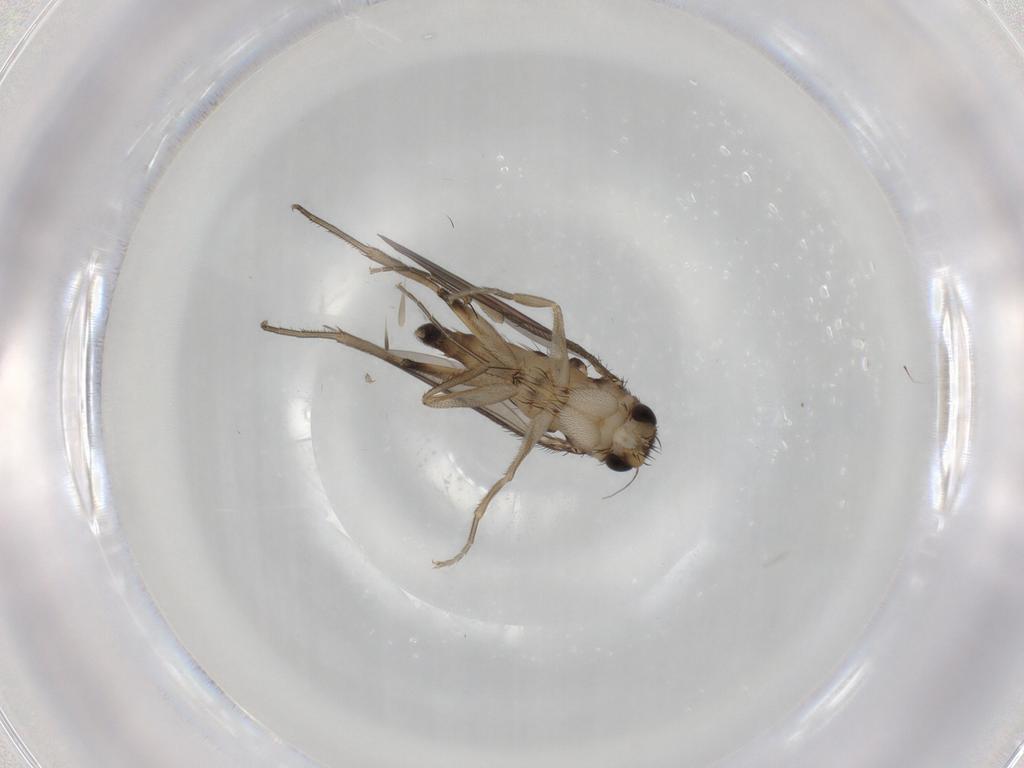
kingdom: Animalia
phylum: Arthropoda
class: Insecta
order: Diptera
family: Phoridae
